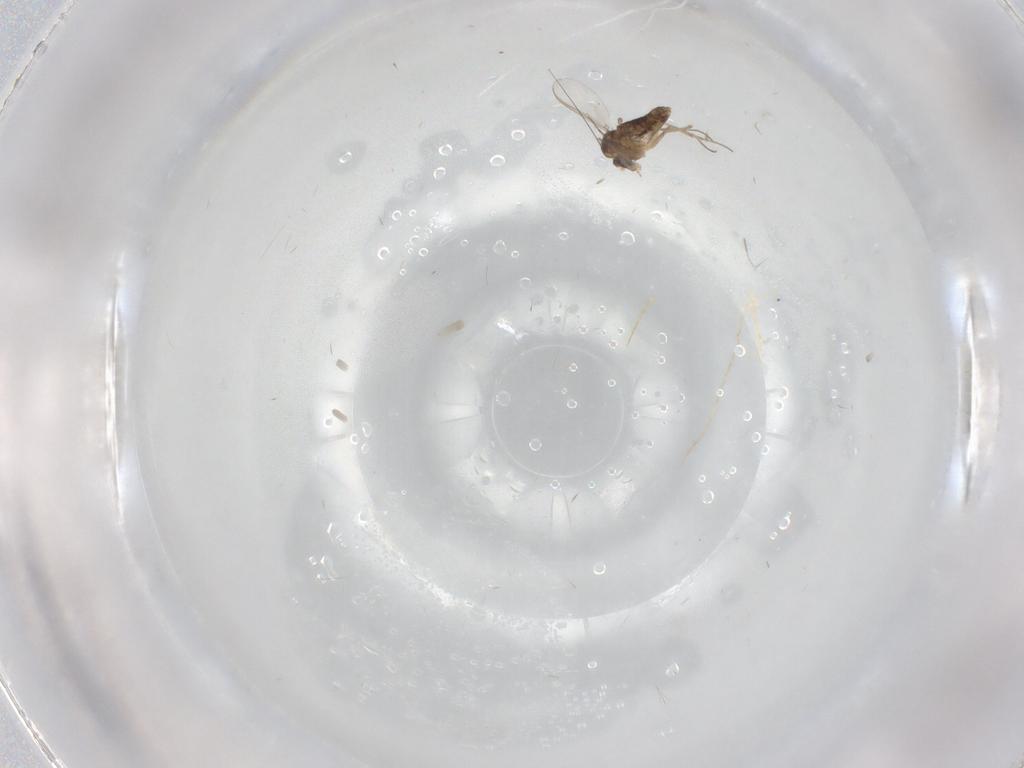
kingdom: Animalia
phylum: Arthropoda
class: Insecta
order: Diptera
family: Chironomidae
